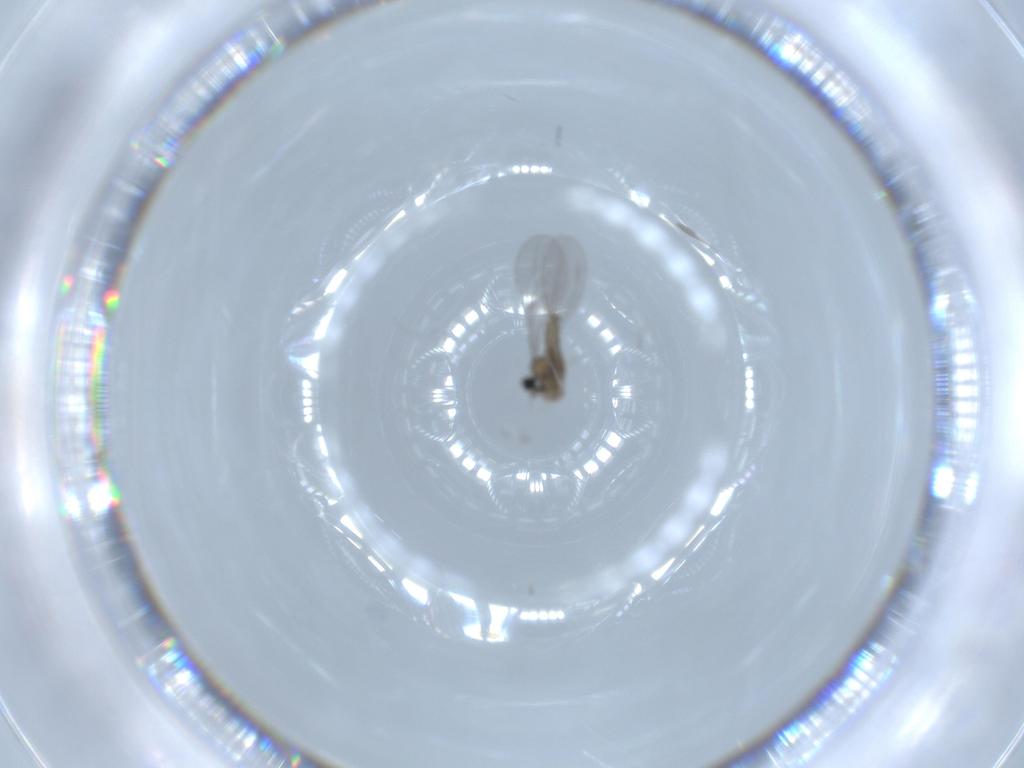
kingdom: Animalia
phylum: Arthropoda
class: Insecta
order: Diptera
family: Cecidomyiidae
